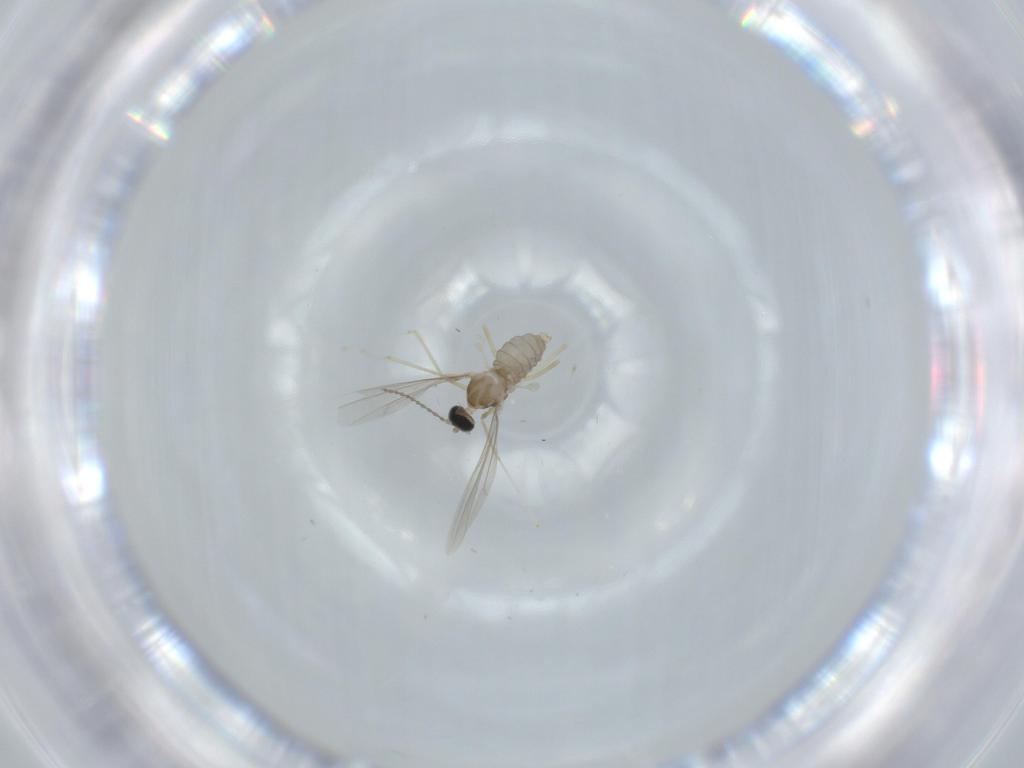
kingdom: Animalia
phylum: Arthropoda
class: Insecta
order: Diptera
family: Cecidomyiidae
